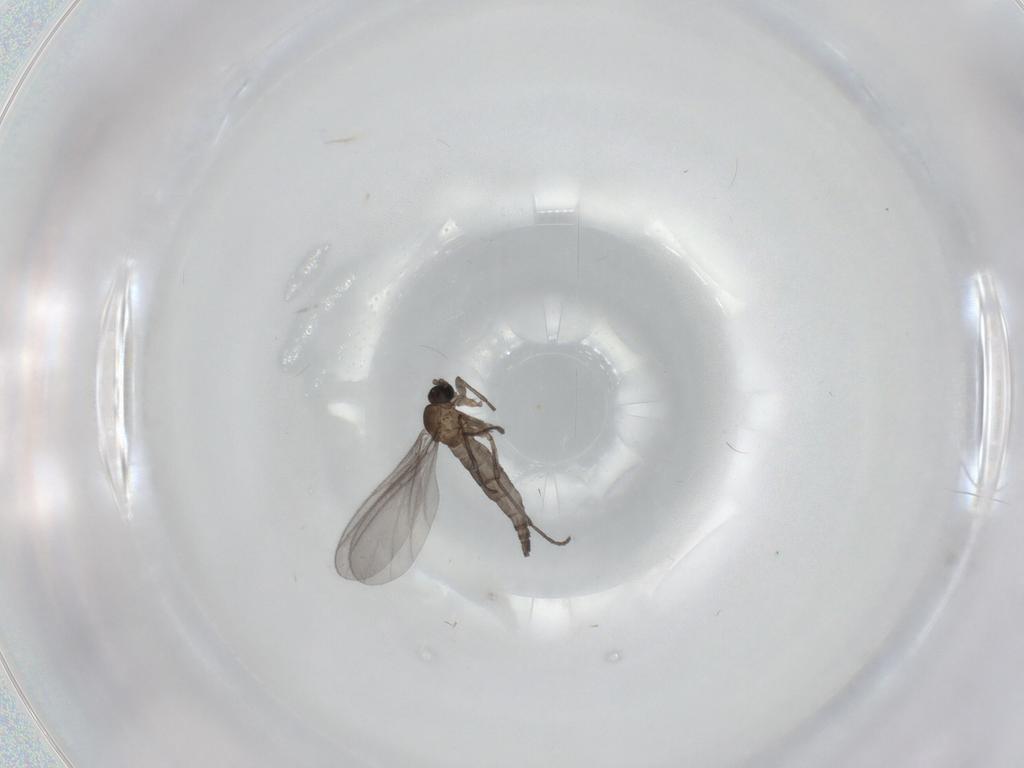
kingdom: Animalia
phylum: Arthropoda
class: Insecta
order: Diptera
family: Sciaridae
